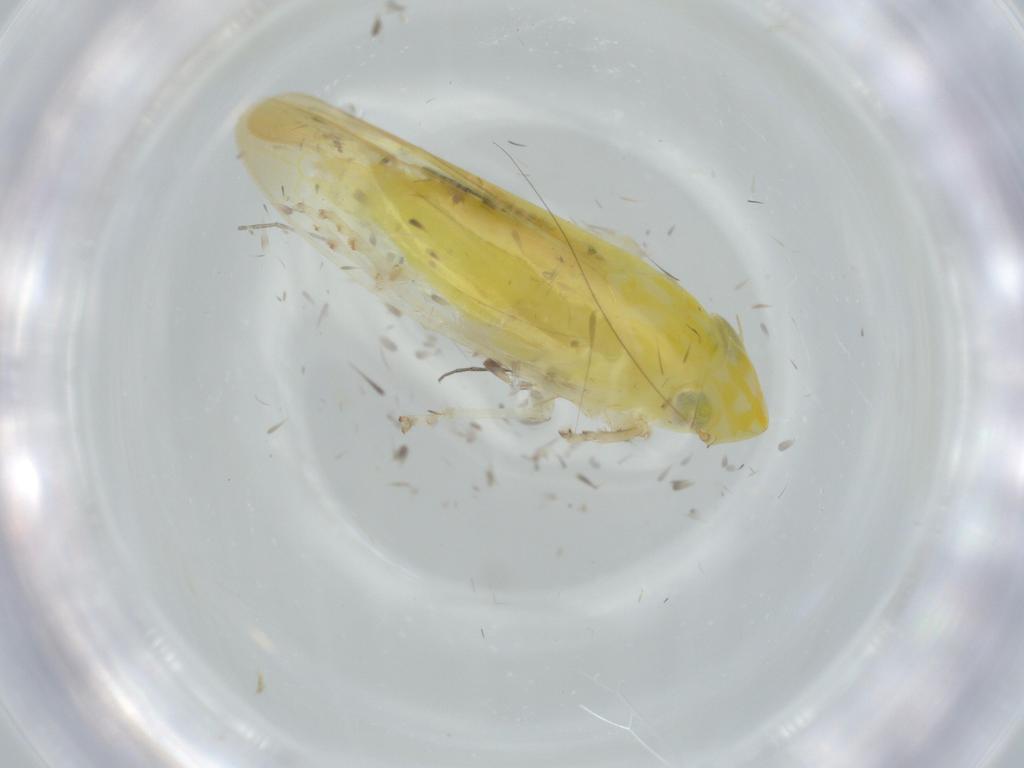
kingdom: Animalia
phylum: Arthropoda
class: Insecta
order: Hemiptera
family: Cicadellidae
